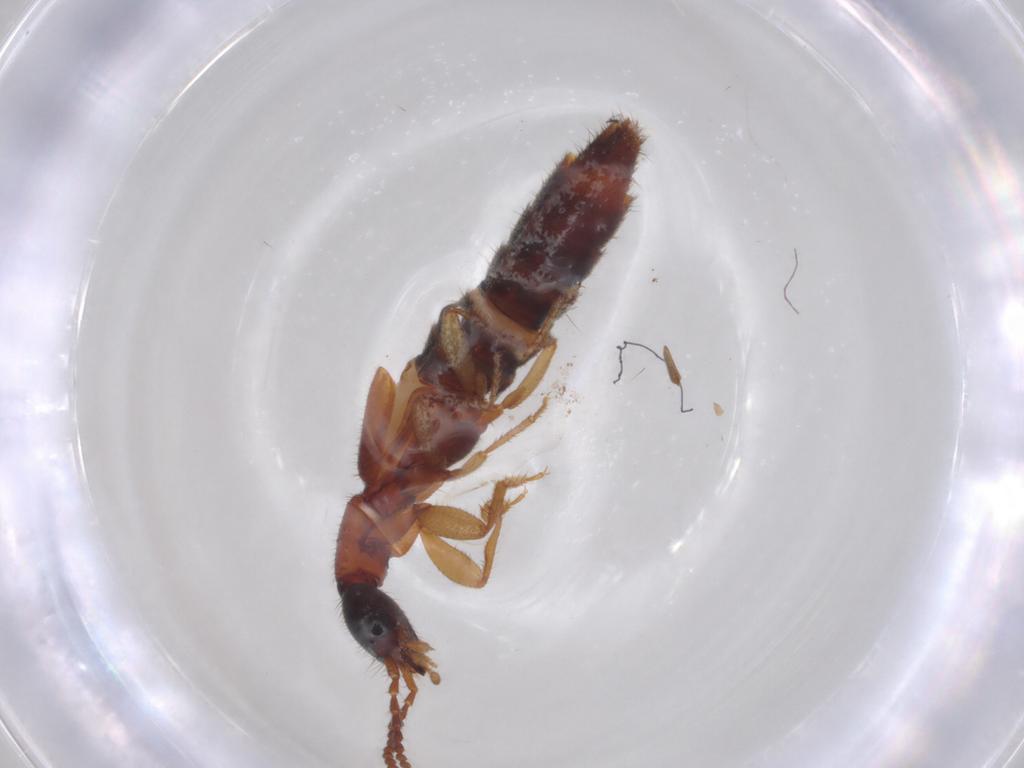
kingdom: Animalia
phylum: Arthropoda
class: Insecta
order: Coleoptera
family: Staphylinidae
